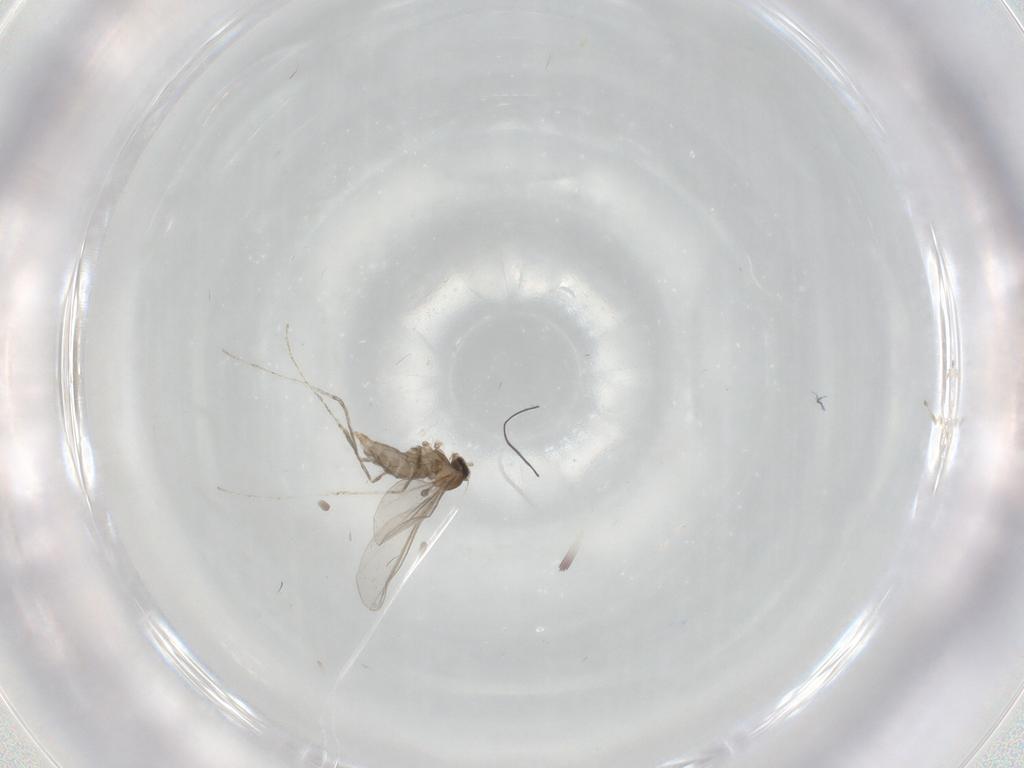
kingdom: Animalia
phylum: Arthropoda
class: Insecta
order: Diptera
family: Cecidomyiidae
